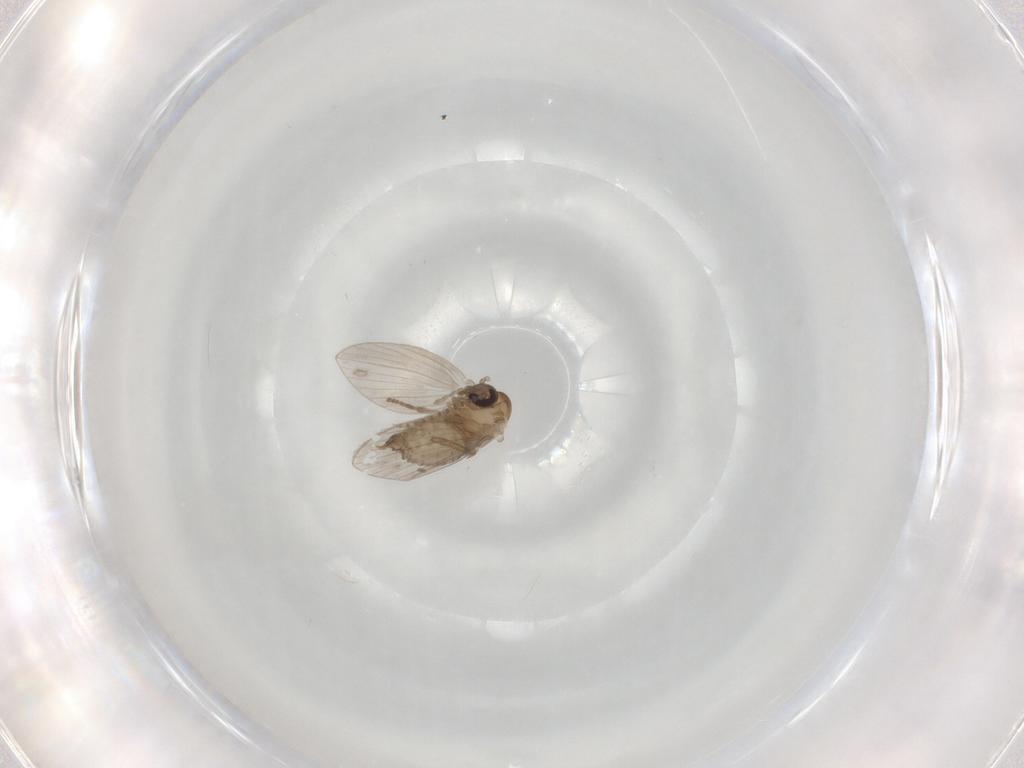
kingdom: Animalia
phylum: Arthropoda
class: Insecta
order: Diptera
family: Psychodidae
